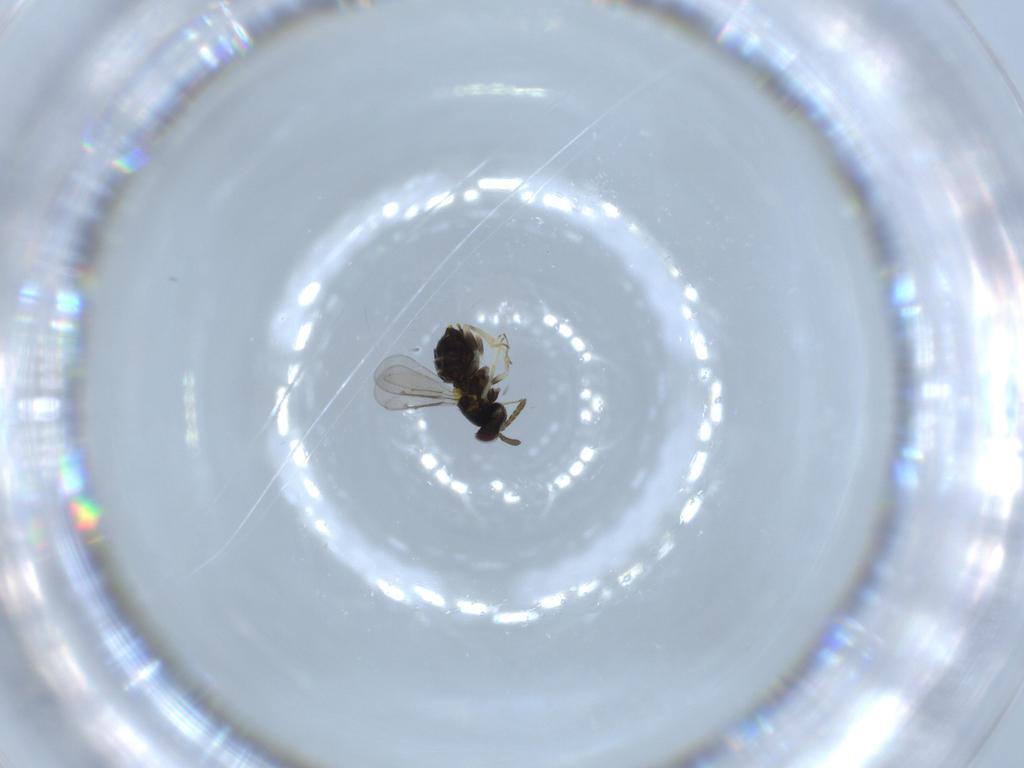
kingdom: Animalia
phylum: Arthropoda
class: Insecta
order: Hymenoptera
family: Aphelinidae
